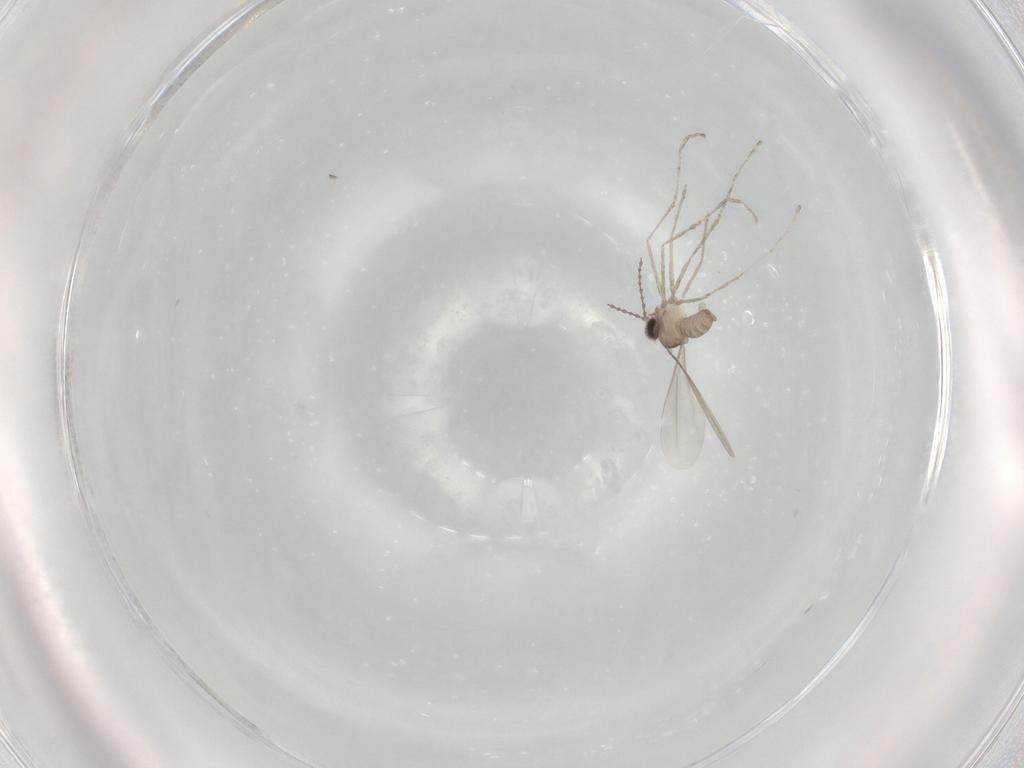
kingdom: Animalia
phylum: Arthropoda
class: Insecta
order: Diptera
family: Cecidomyiidae
